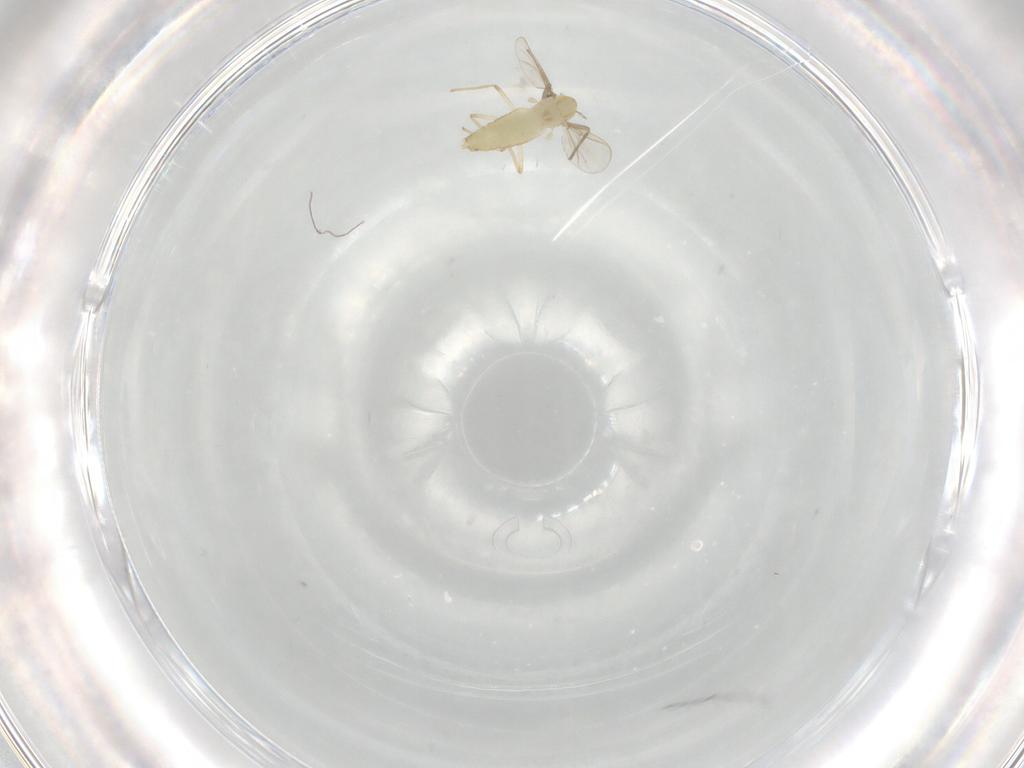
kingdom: Animalia
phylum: Arthropoda
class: Insecta
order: Diptera
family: Chironomidae
